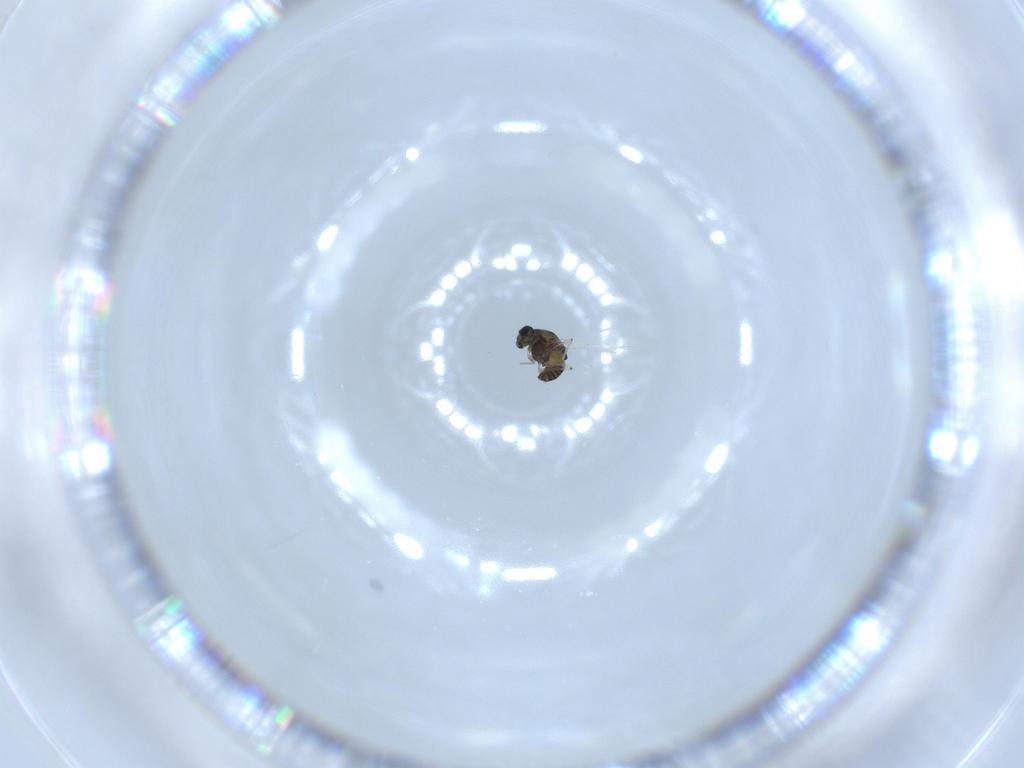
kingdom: Animalia
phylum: Arthropoda
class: Insecta
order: Diptera
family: Chironomidae
